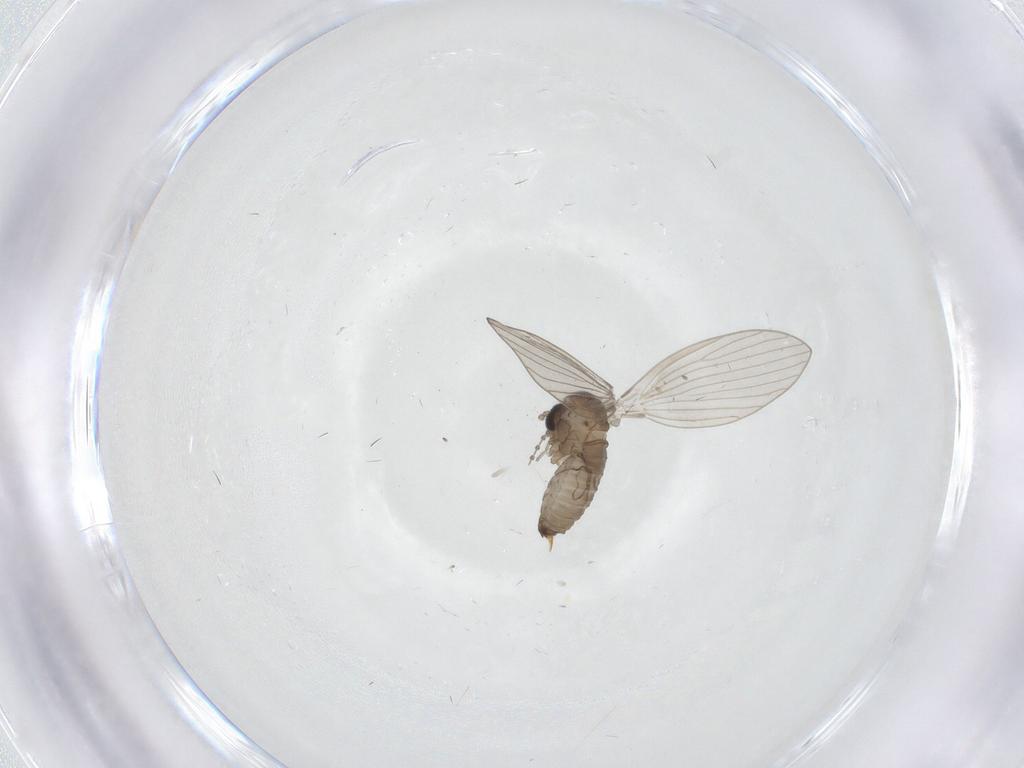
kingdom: Animalia
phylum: Arthropoda
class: Insecta
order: Diptera
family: Psychodidae
